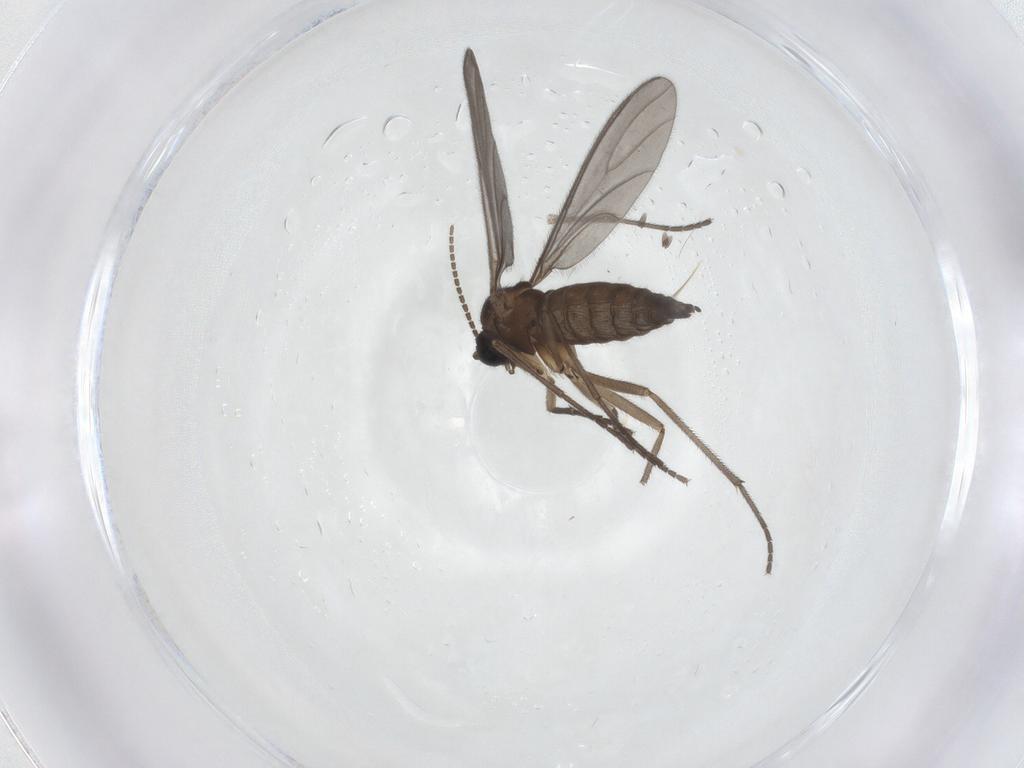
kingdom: Animalia
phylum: Arthropoda
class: Insecta
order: Diptera
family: Sciaridae
